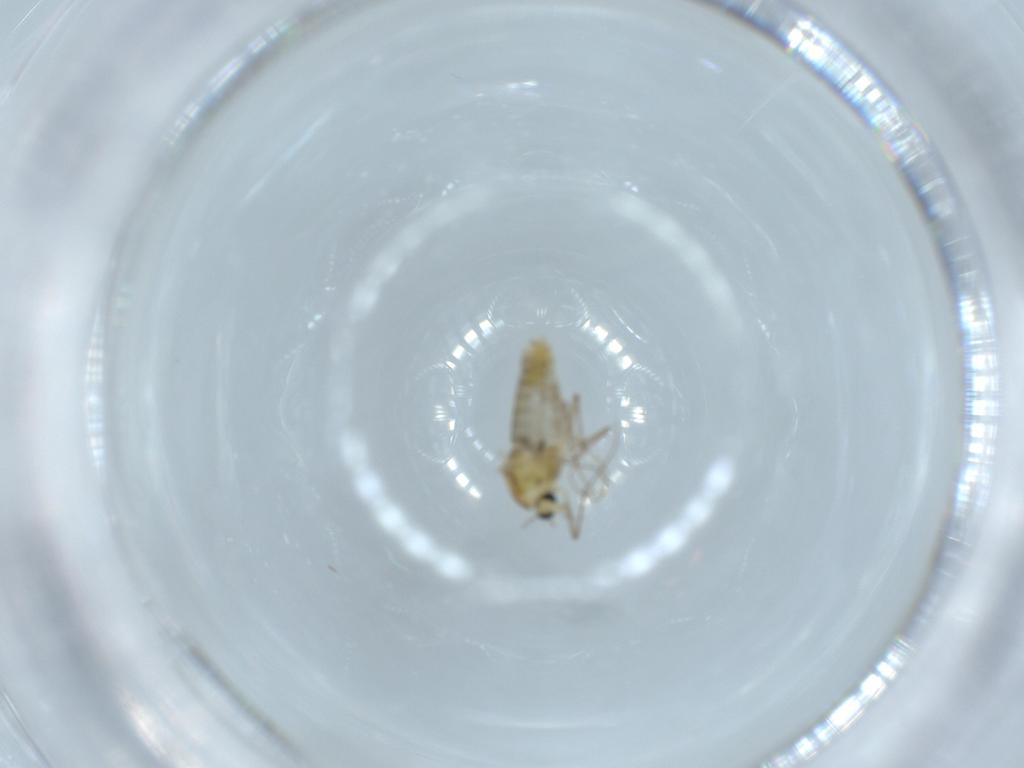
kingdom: Animalia
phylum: Arthropoda
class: Insecta
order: Diptera
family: Chironomidae
